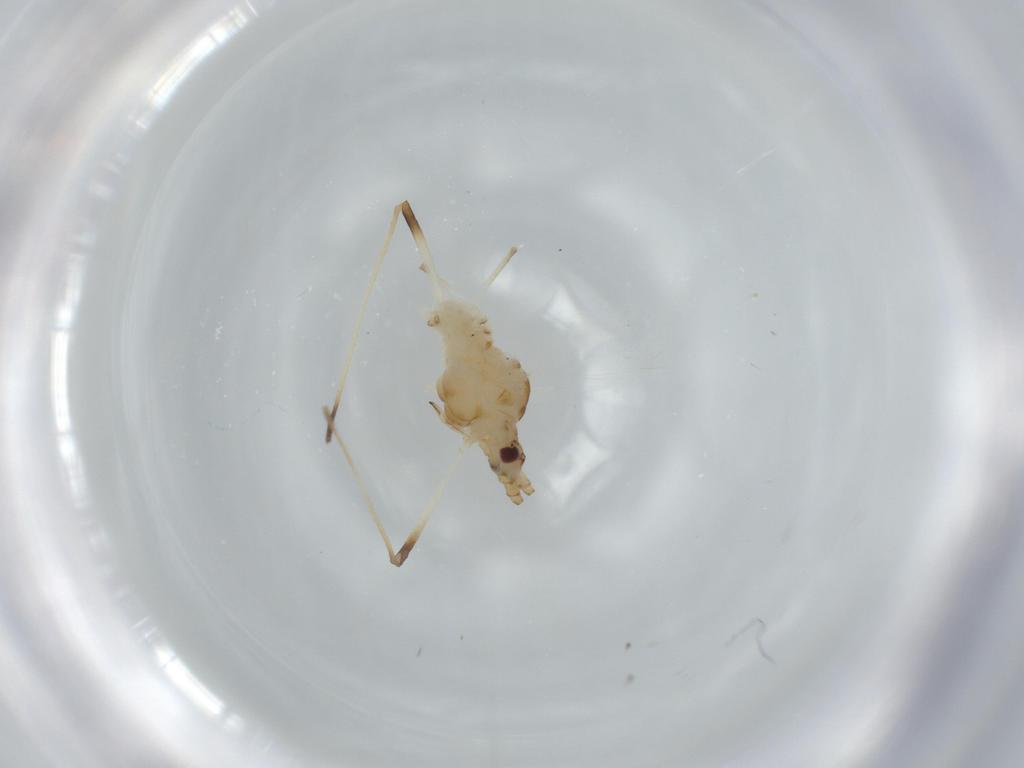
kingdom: Animalia
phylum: Arthropoda
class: Insecta
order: Hemiptera
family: Aphididae
